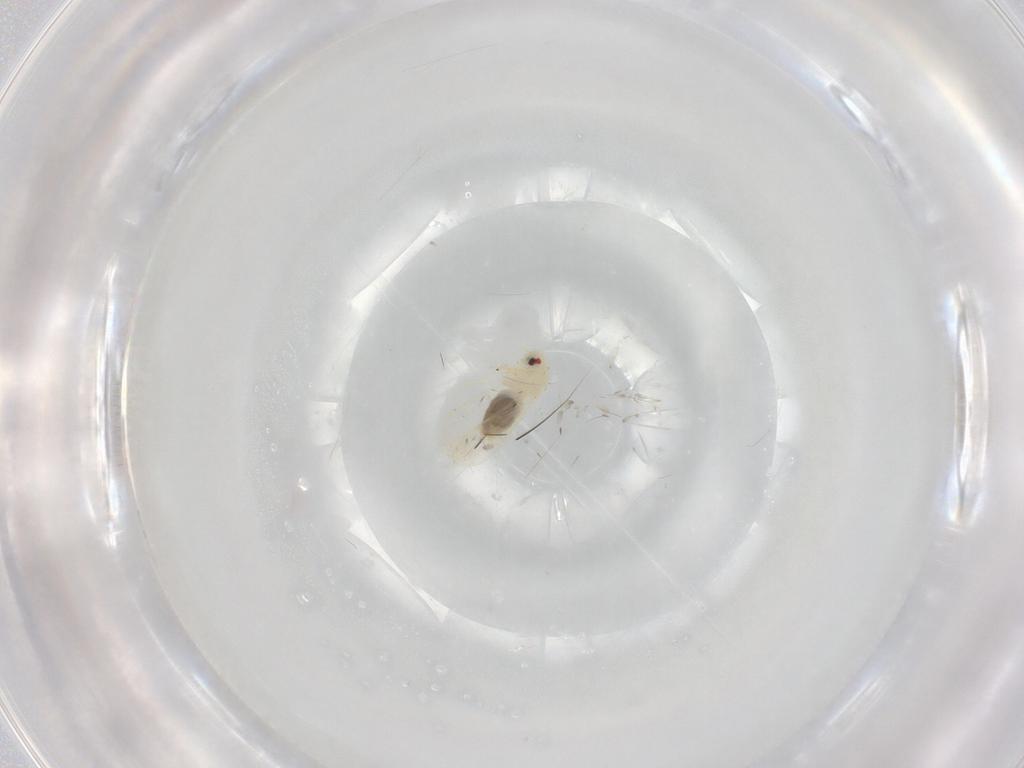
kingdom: Animalia
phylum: Arthropoda
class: Insecta
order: Hemiptera
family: Aleyrodidae
